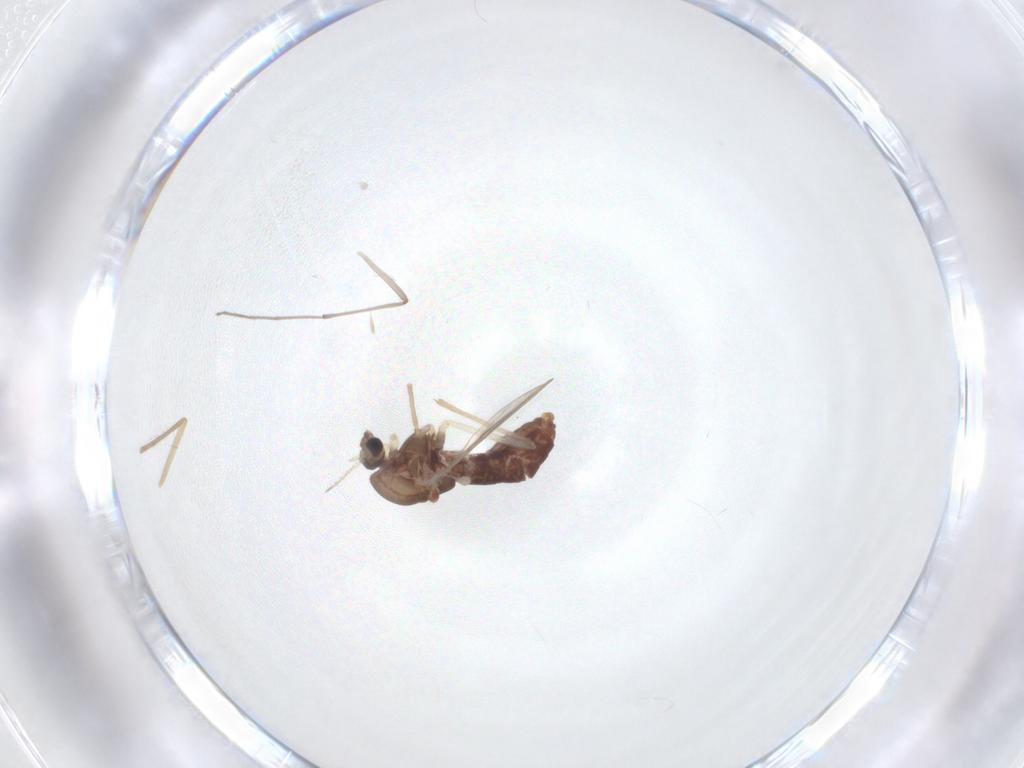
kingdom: Animalia
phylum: Arthropoda
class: Insecta
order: Diptera
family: Chironomidae
